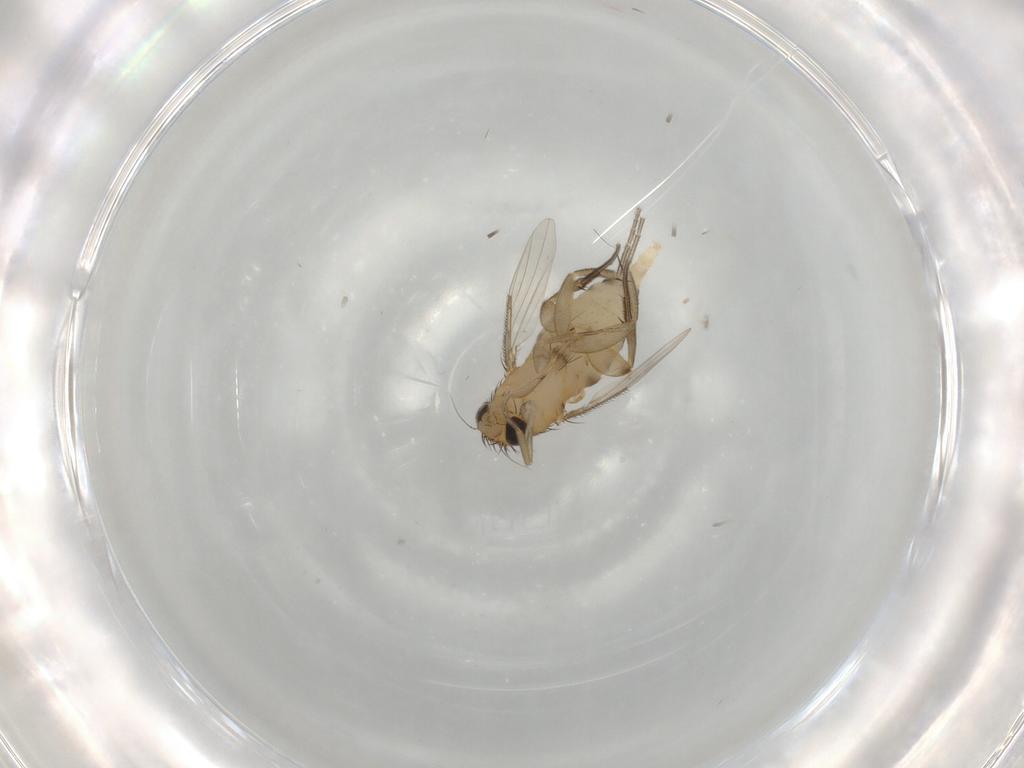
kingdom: Animalia
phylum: Arthropoda
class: Insecta
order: Diptera
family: Phoridae
